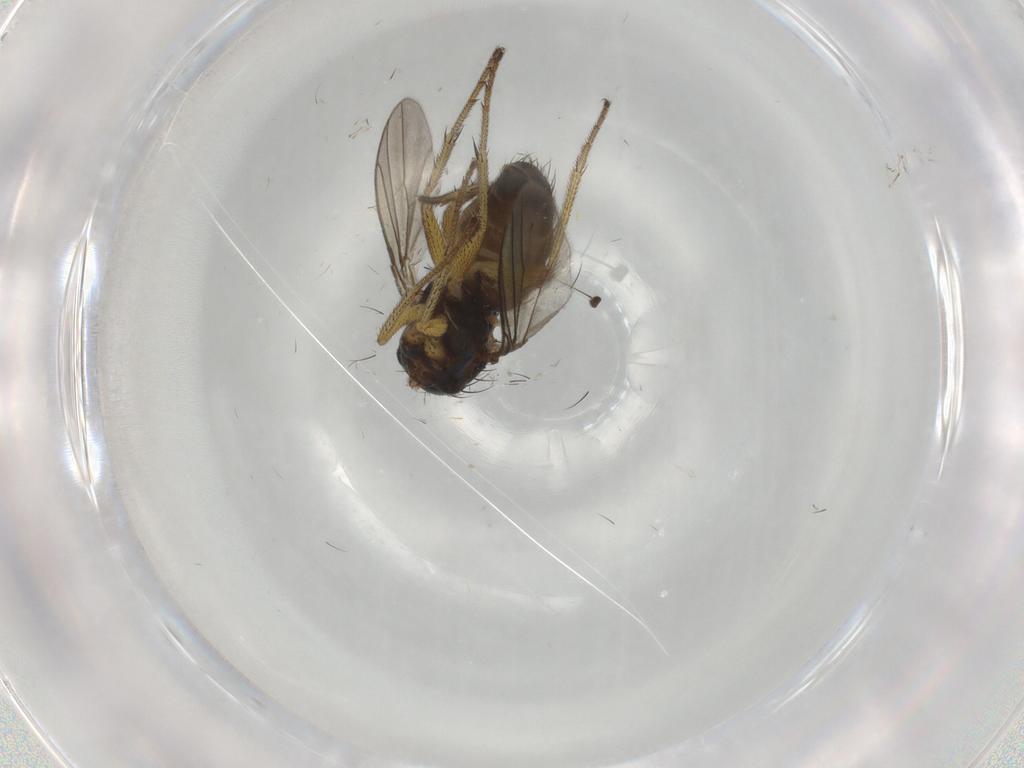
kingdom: Animalia
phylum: Arthropoda
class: Insecta
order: Diptera
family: Dolichopodidae
